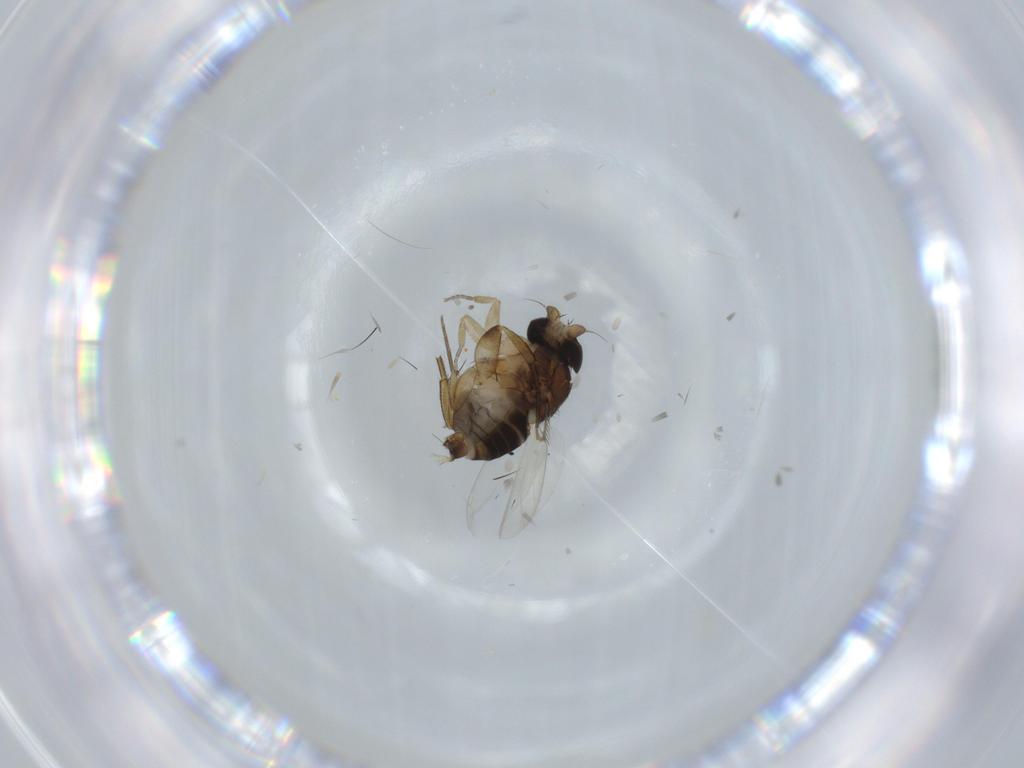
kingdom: Animalia
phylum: Arthropoda
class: Insecta
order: Diptera
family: Phoridae
